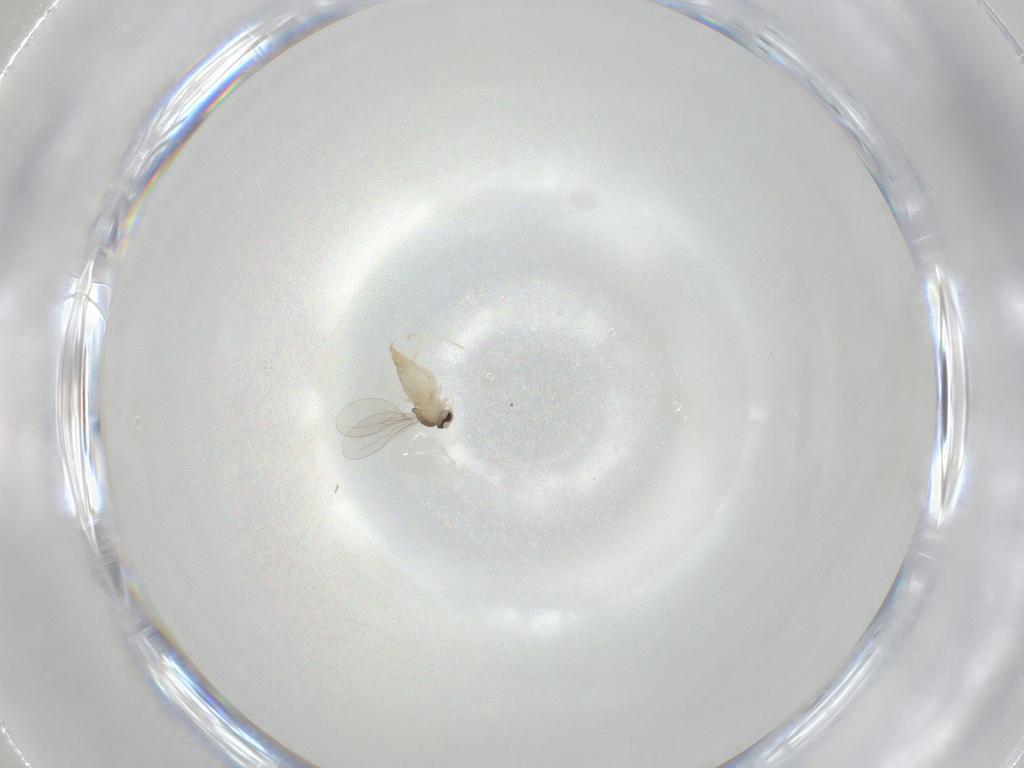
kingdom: Animalia
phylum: Arthropoda
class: Insecta
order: Diptera
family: Cecidomyiidae
